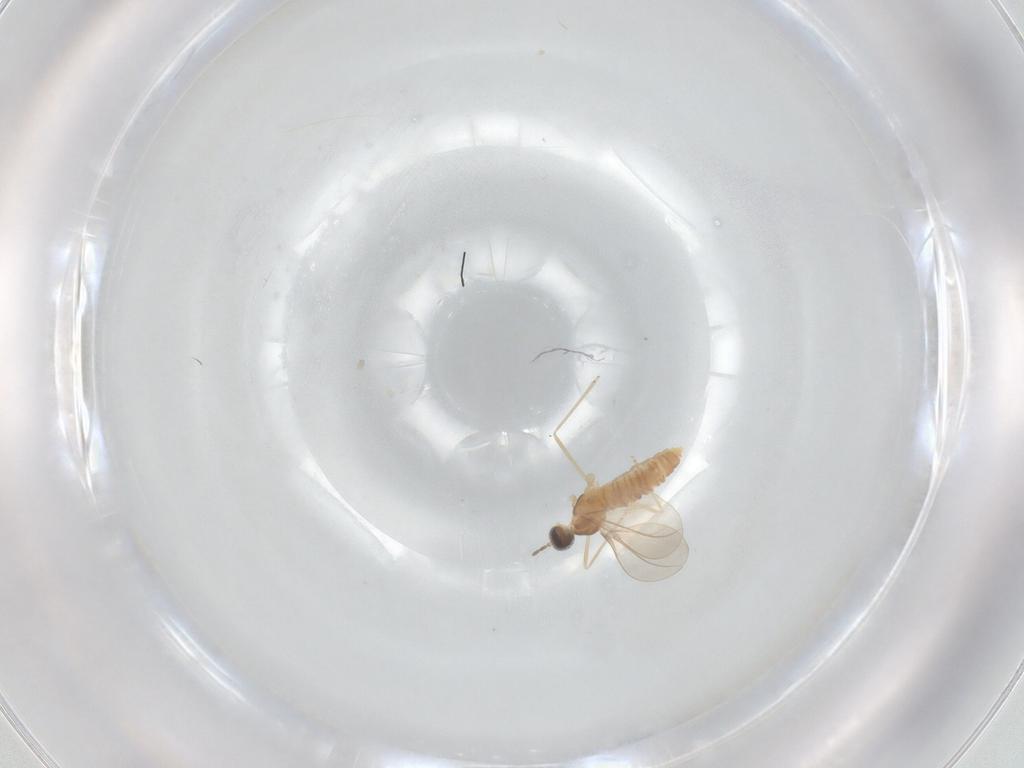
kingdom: Animalia
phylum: Arthropoda
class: Insecta
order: Diptera
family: Cecidomyiidae
